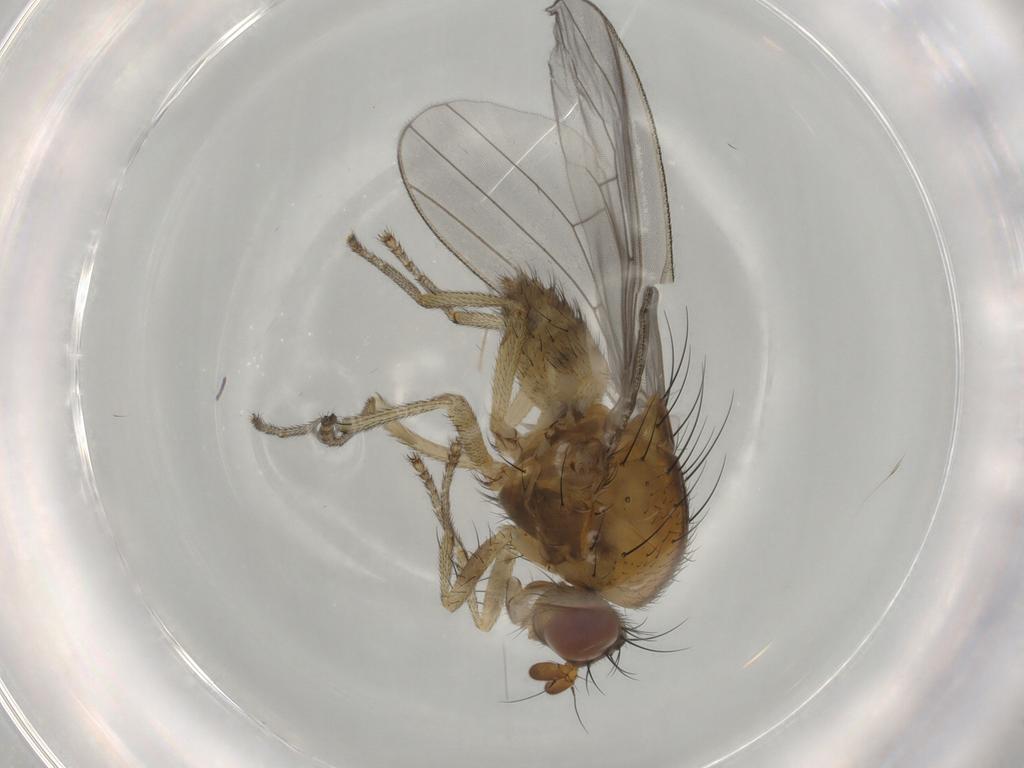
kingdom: Animalia
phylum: Arthropoda
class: Insecta
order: Diptera
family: Lauxaniidae
